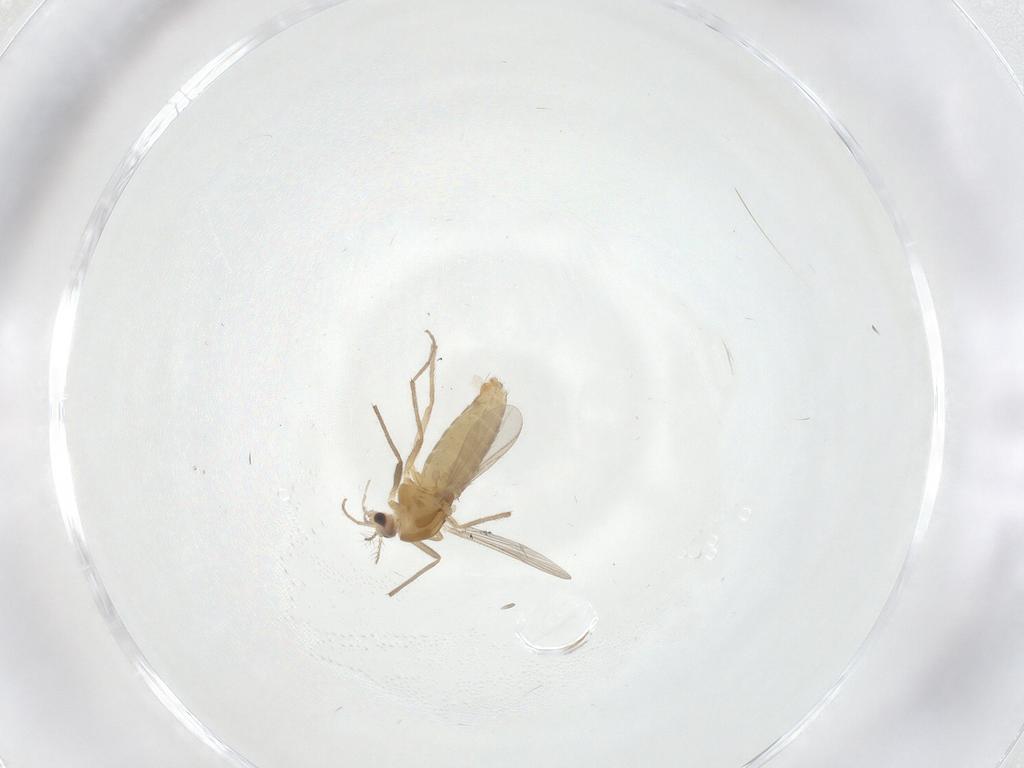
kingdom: Animalia
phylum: Arthropoda
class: Insecta
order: Diptera
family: Chironomidae
